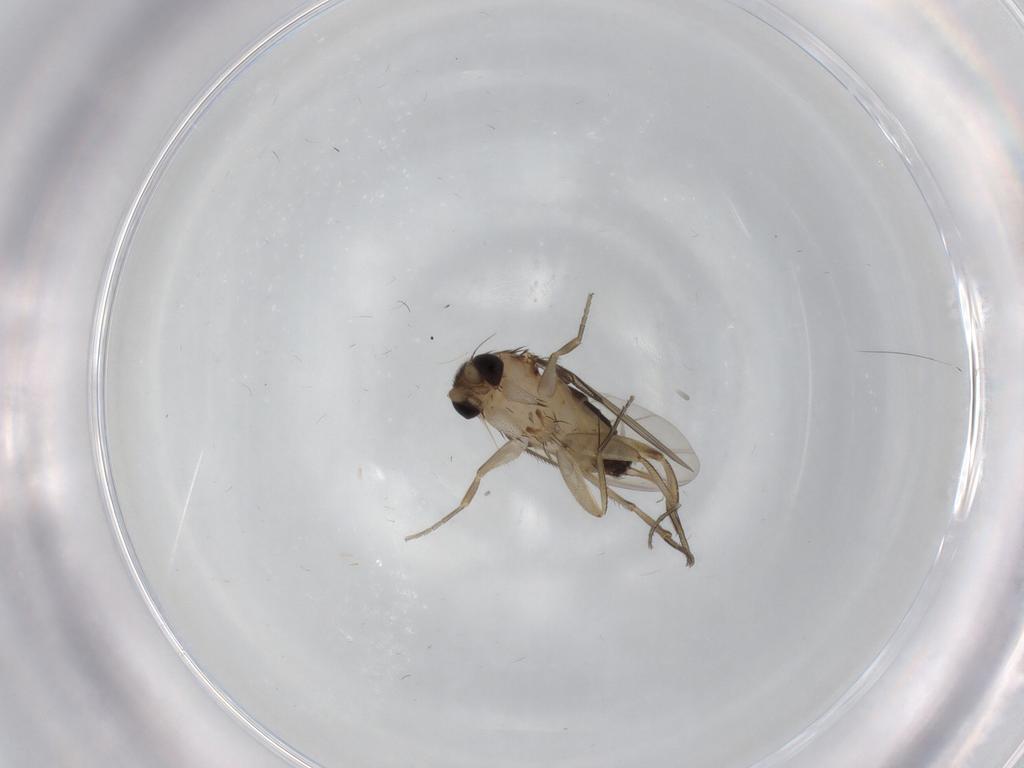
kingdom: Animalia
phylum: Arthropoda
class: Insecta
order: Diptera
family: Phoridae
